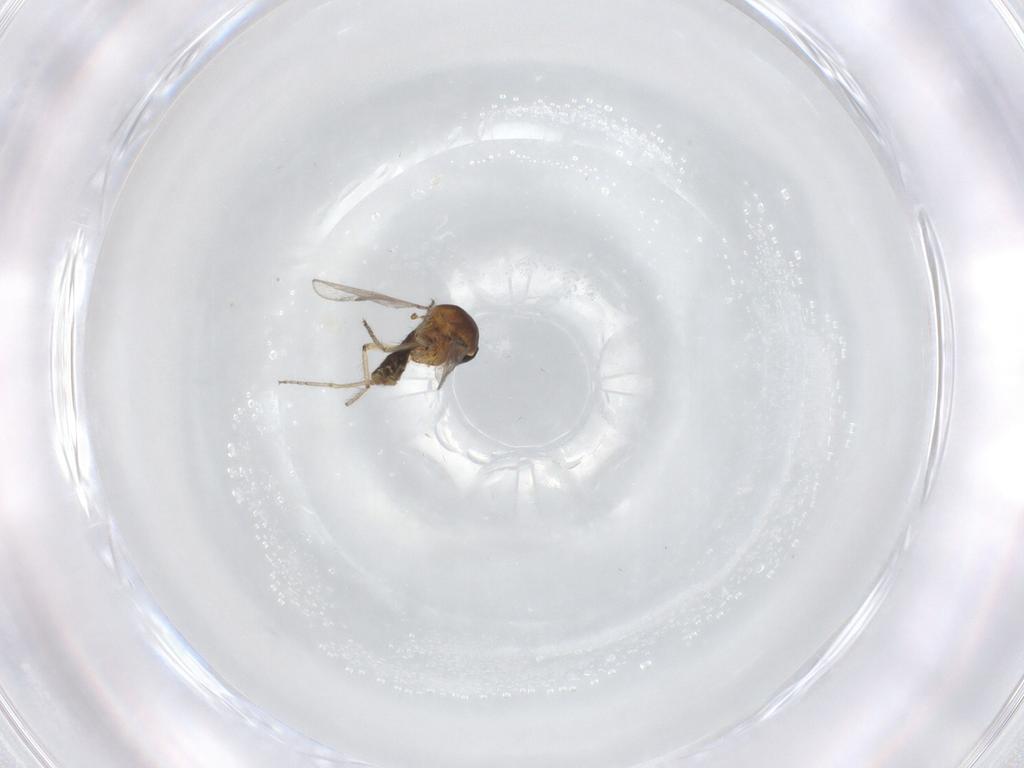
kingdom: Animalia
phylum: Arthropoda
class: Insecta
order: Diptera
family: Ceratopogonidae
